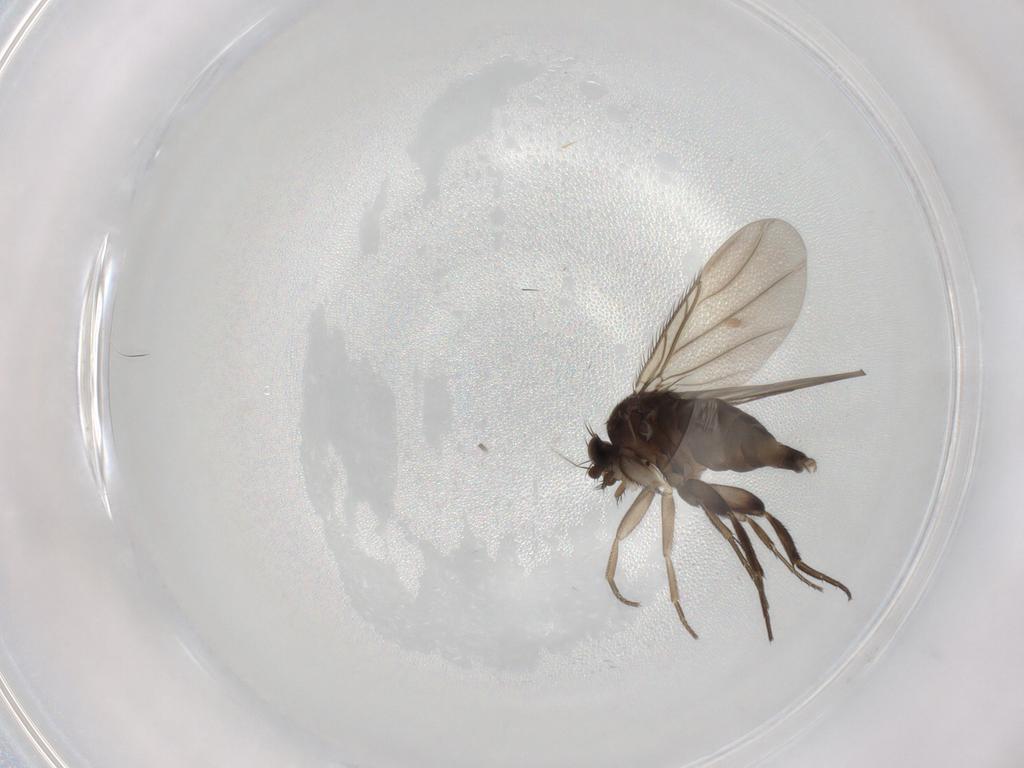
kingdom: Animalia
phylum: Arthropoda
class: Insecta
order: Diptera
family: Phoridae
